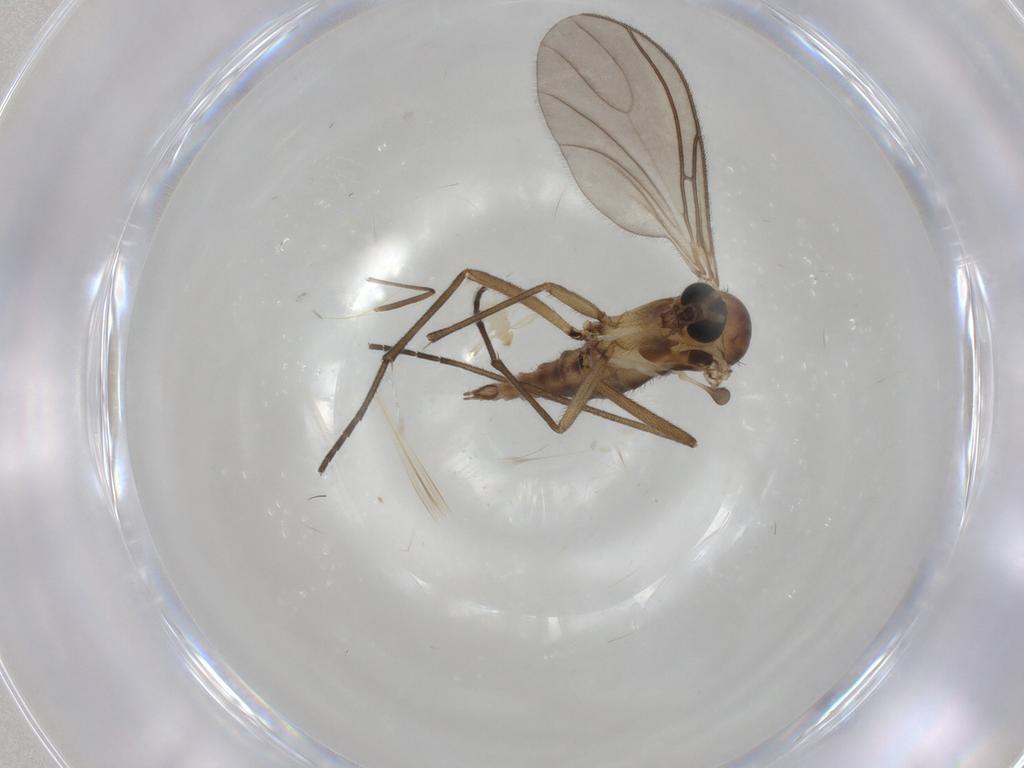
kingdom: Animalia
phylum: Arthropoda
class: Insecta
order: Diptera
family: Sciaridae
